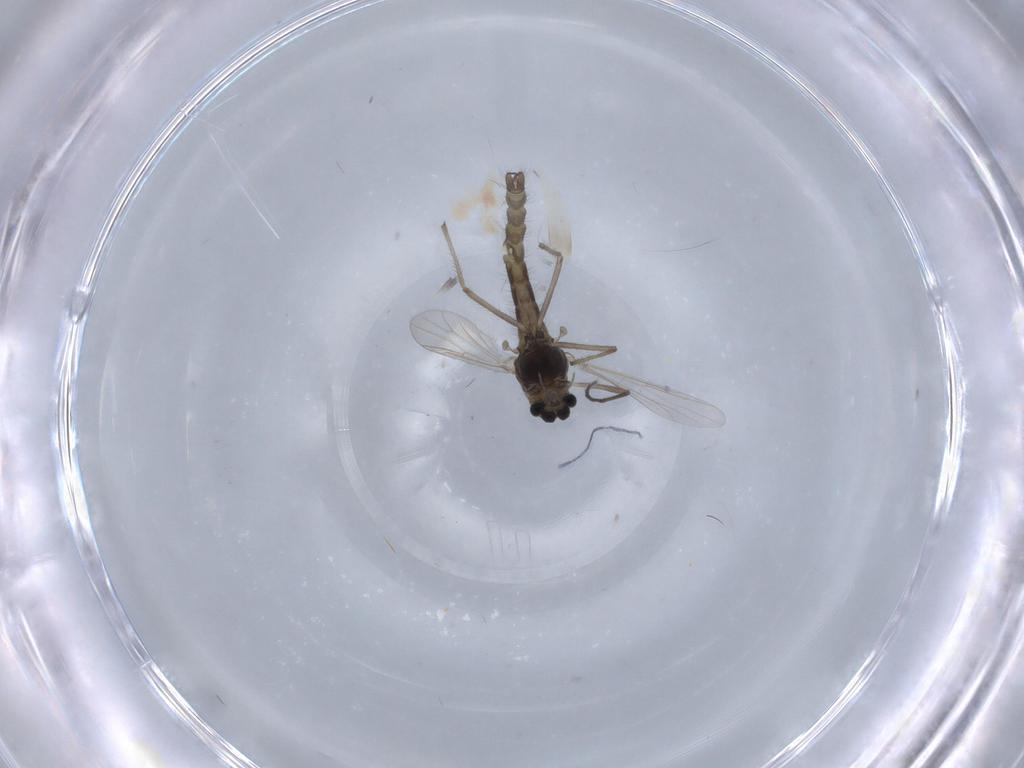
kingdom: Animalia
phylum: Arthropoda
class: Insecta
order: Diptera
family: Chironomidae
